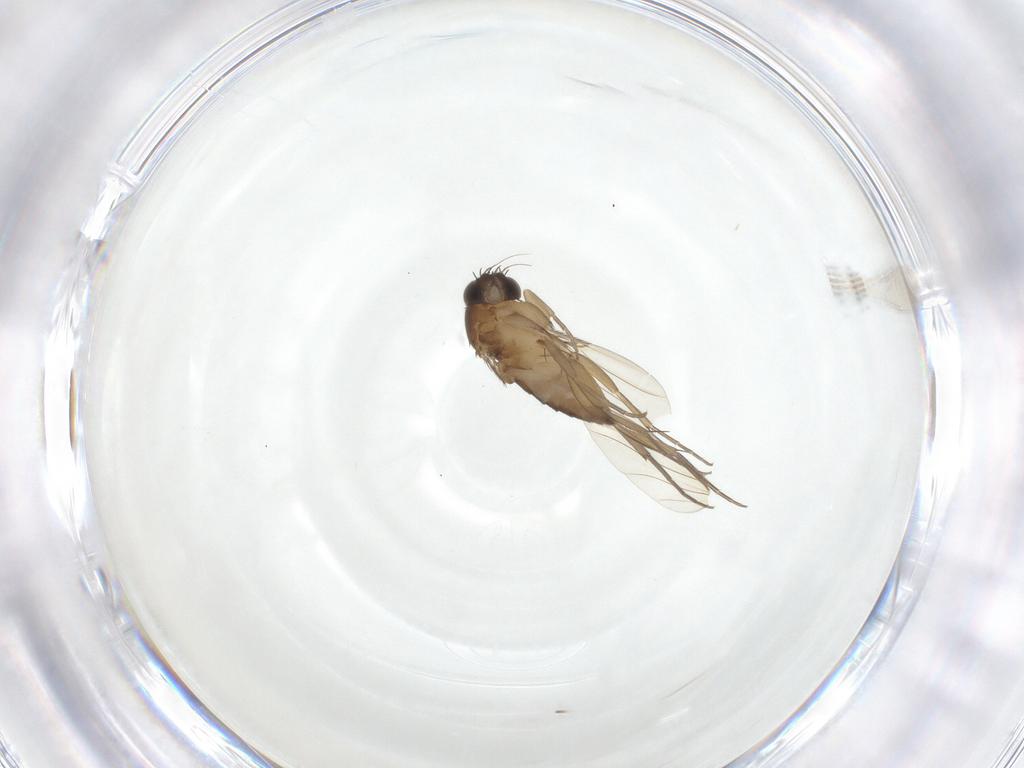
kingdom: Animalia
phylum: Arthropoda
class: Insecta
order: Diptera
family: Phoridae
